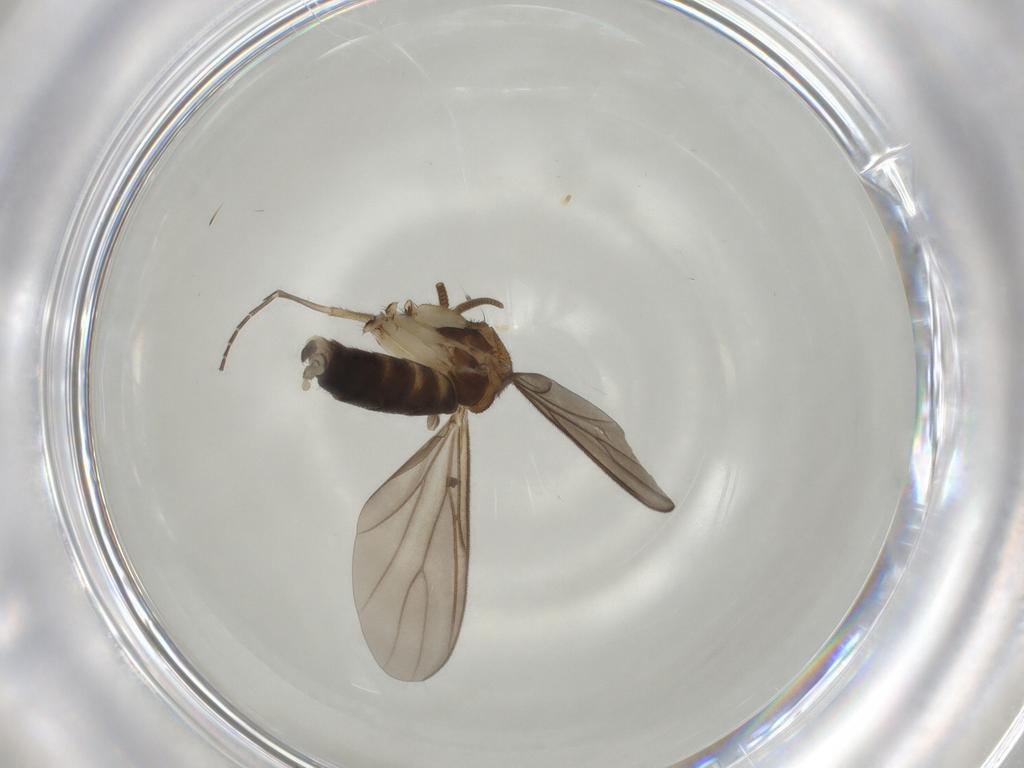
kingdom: Animalia
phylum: Arthropoda
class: Insecta
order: Diptera
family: Mycetophilidae
